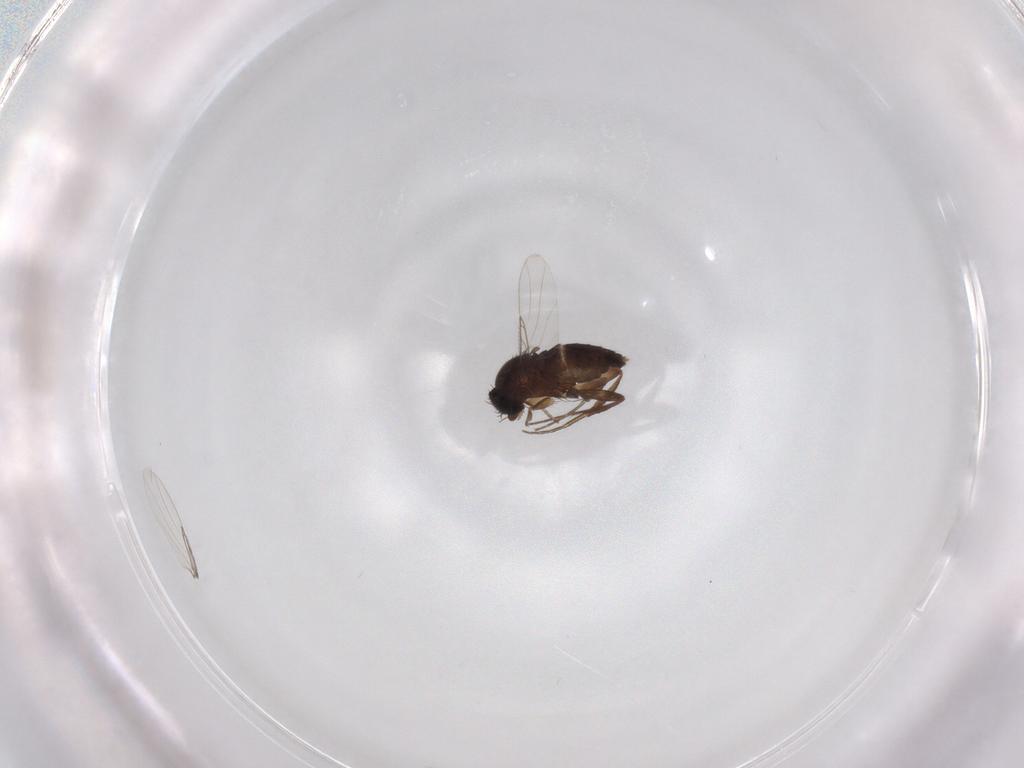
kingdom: Animalia
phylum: Arthropoda
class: Insecta
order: Diptera
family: Phoridae
